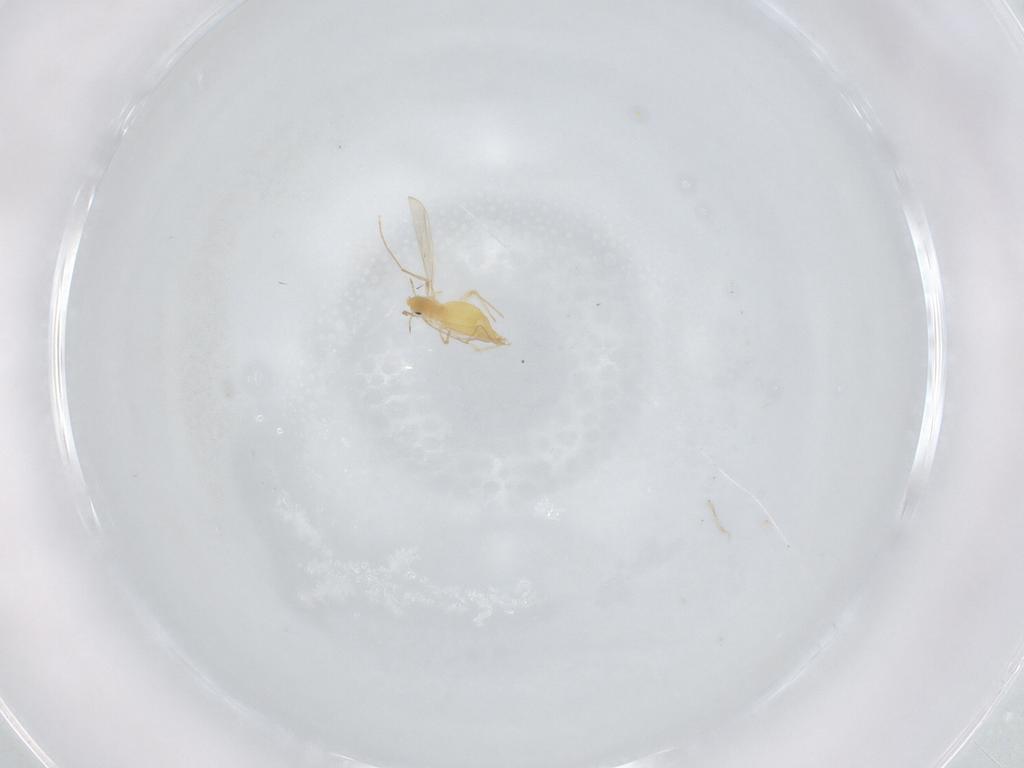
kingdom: Animalia
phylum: Arthropoda
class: Insecta
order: Diptera
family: Chironomidae
